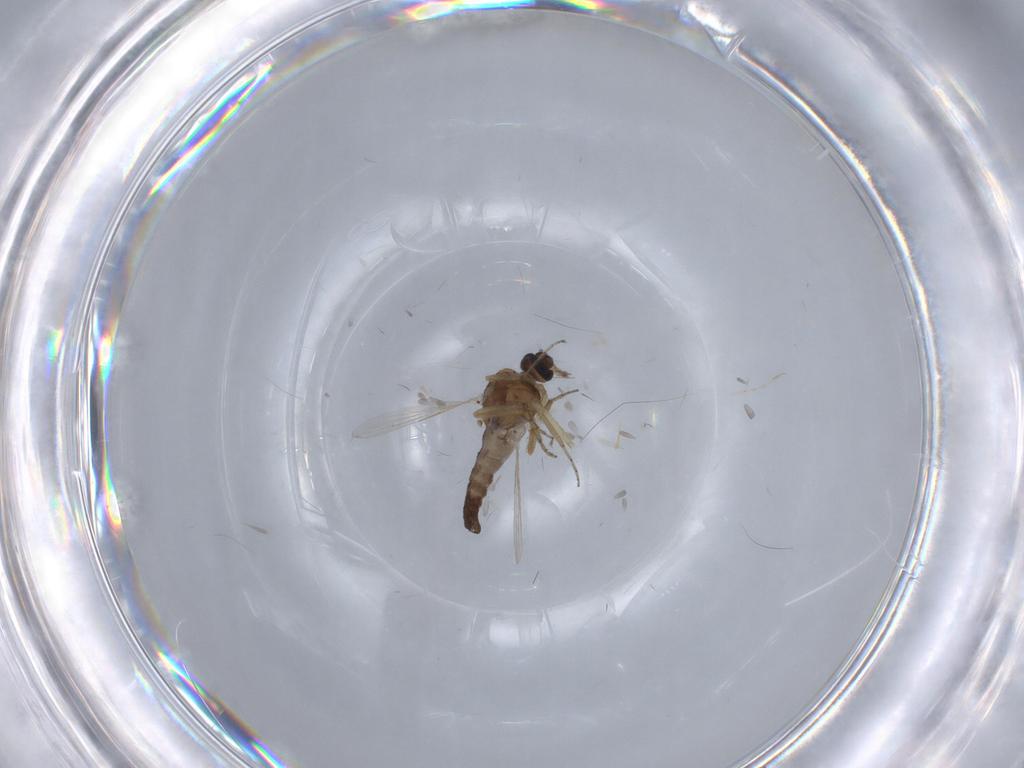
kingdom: Animalia
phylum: Arthropoda
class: Insecta
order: Diptera
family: Ceratopogonidae
